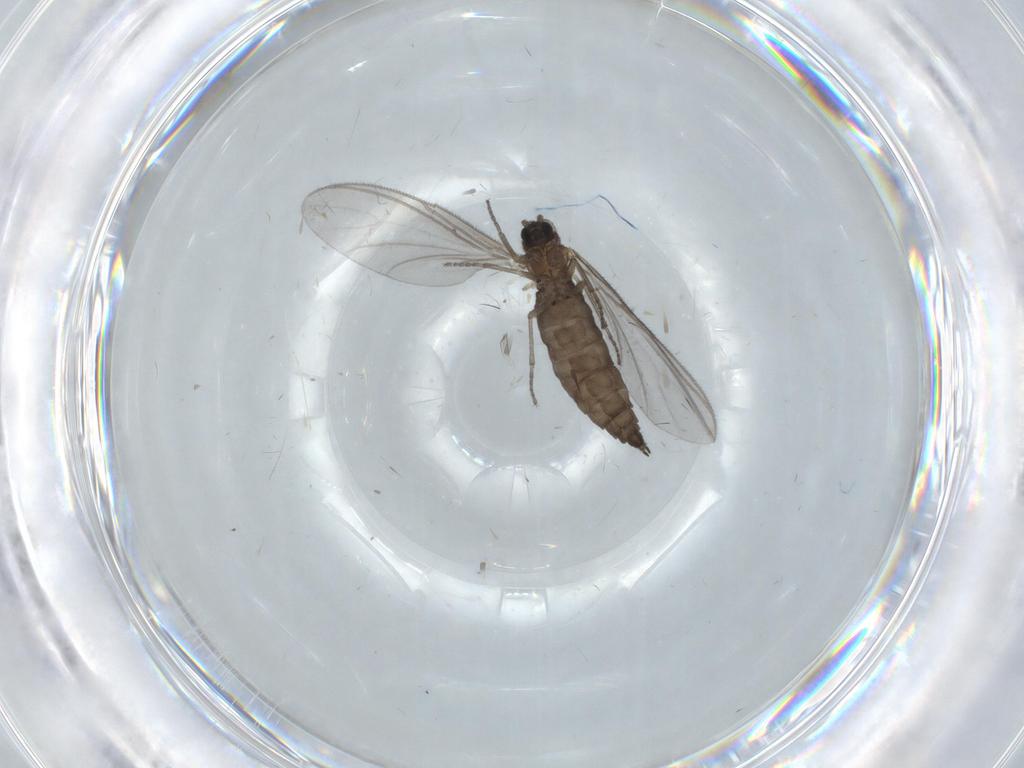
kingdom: Animalia
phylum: Arthropoda
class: Insecta
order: Diptera
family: Sciaridae
